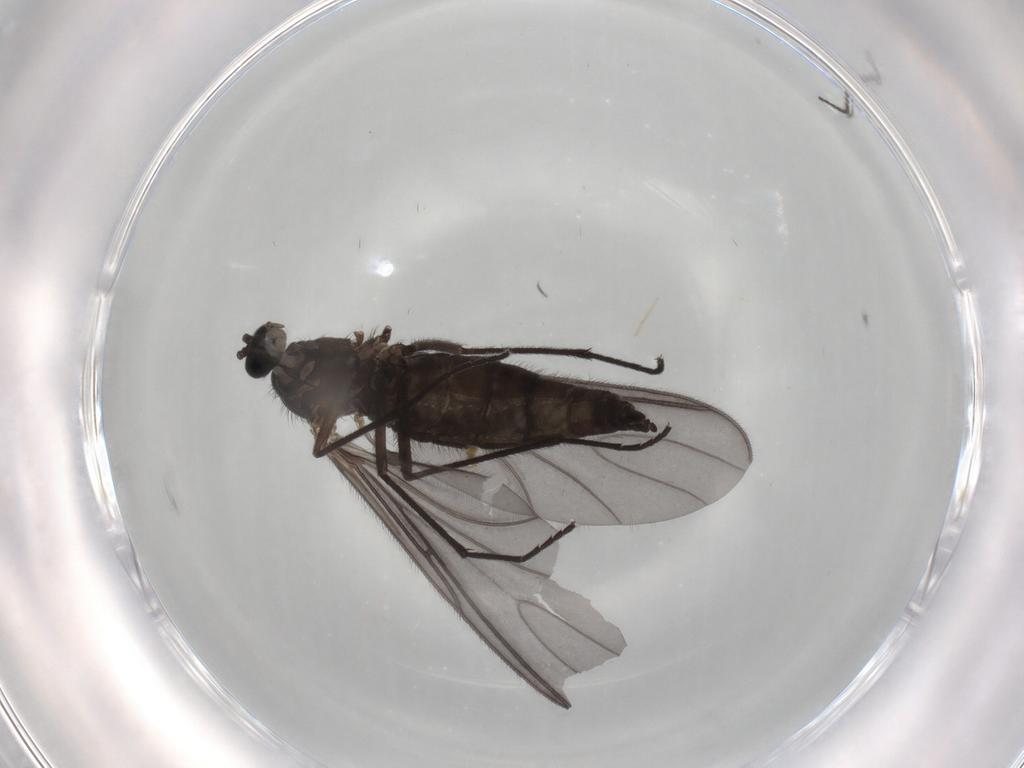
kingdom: Animalia
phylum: Arthropoda
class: Insecta
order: Diptera
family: Sciaridae
